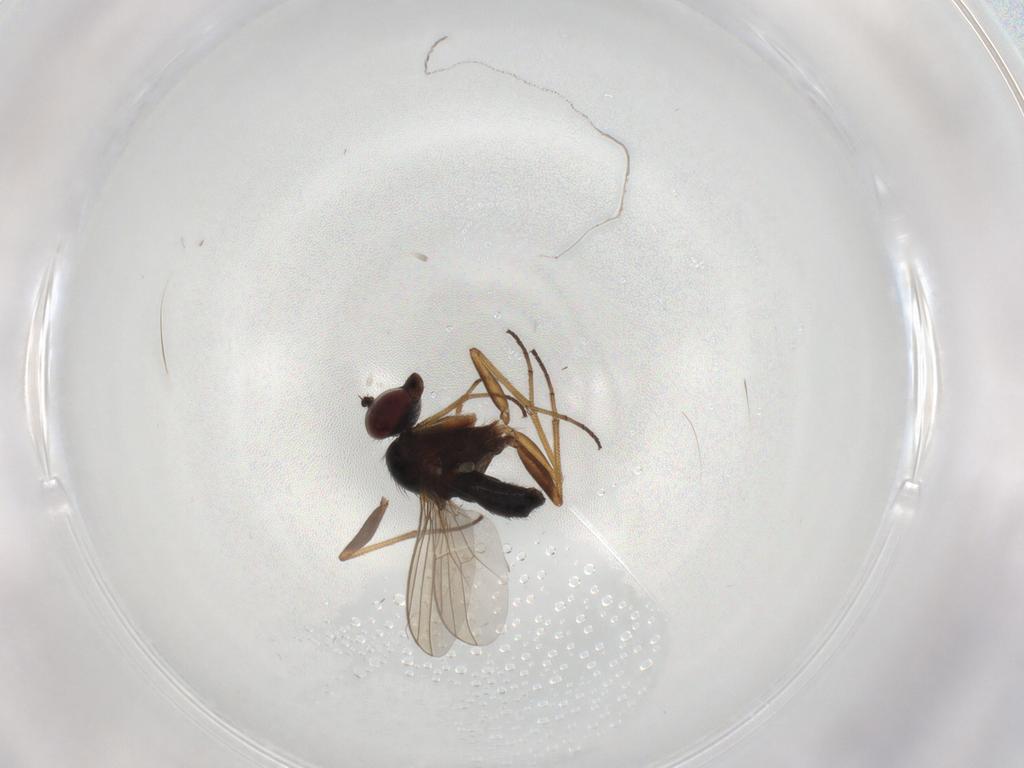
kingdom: Animalia
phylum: Arthropoda
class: Insecta
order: Diptera
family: Dolichopodidae
